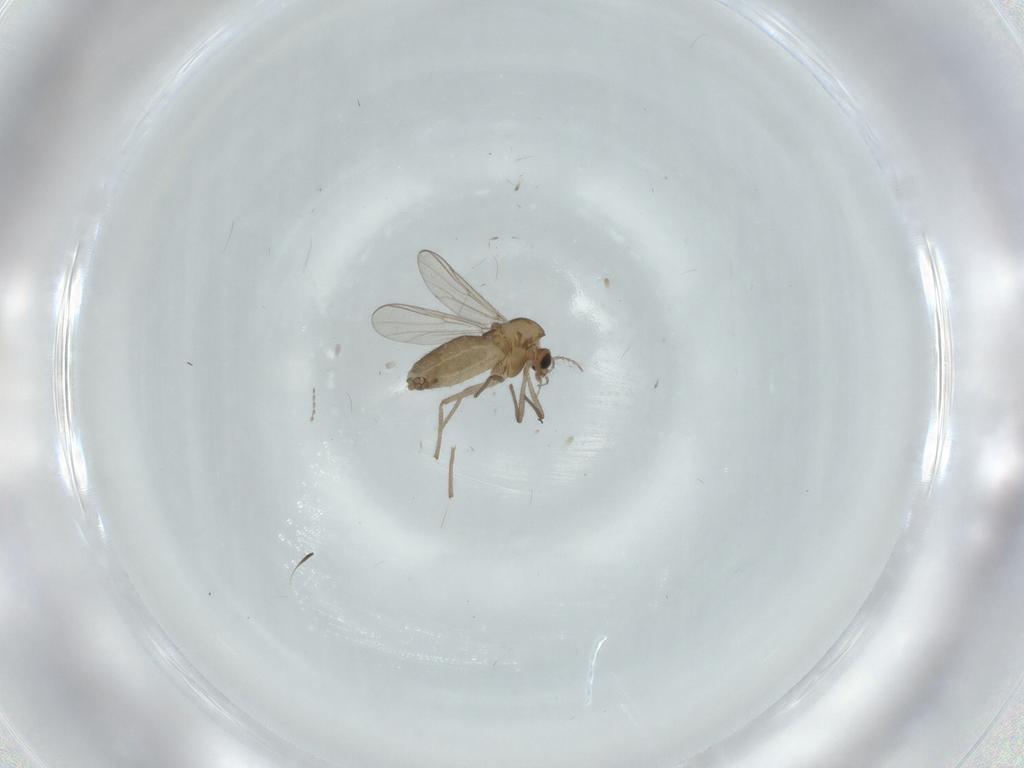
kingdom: Animalia
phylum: Arthropoda
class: Insecta
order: Diptera
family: Chironomidae
